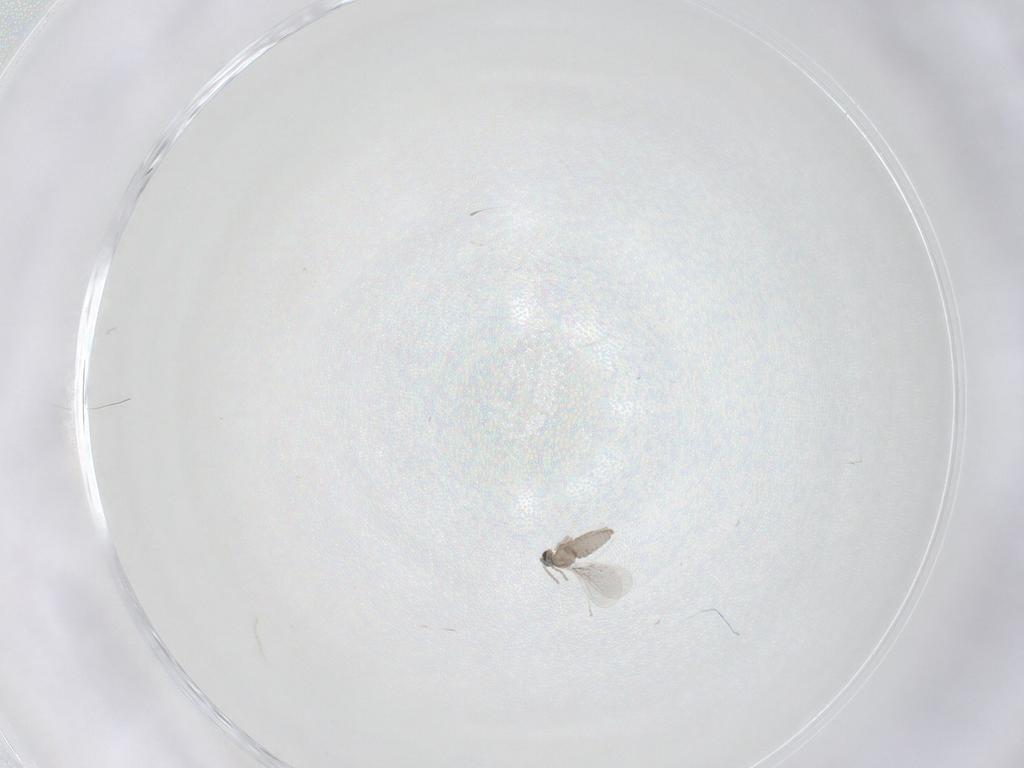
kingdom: Animalia
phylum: Arthropoda
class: Insecta
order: Diptera
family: Cecidomyiidae
